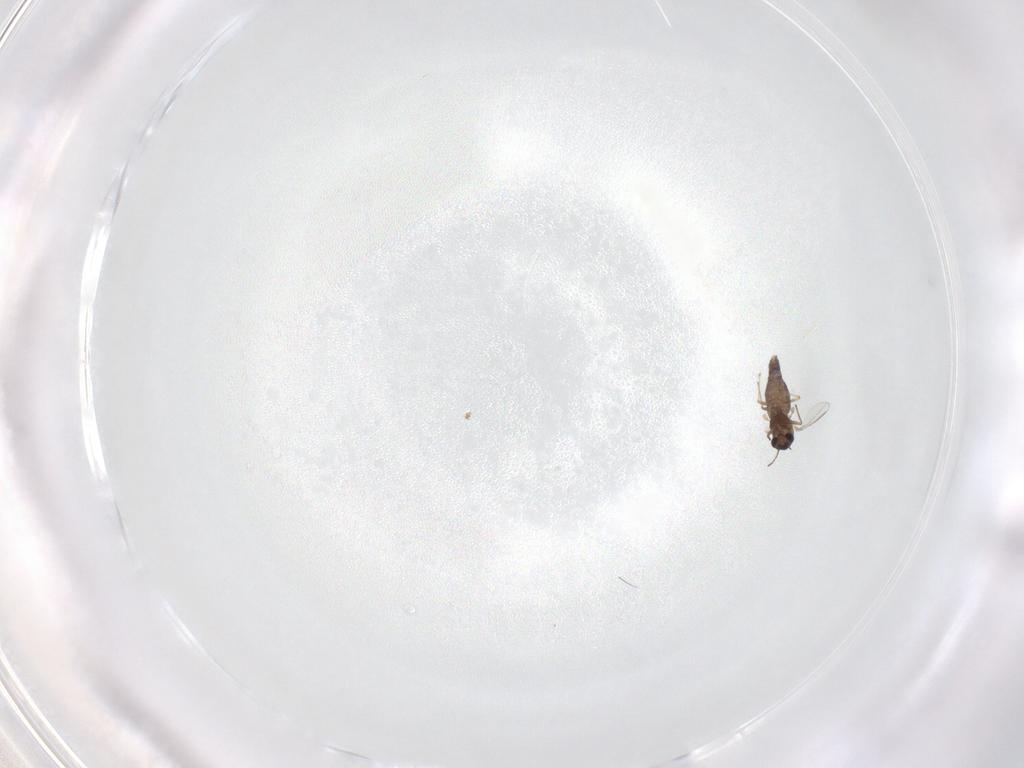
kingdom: Animalia
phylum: Arthropoda
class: Insecta
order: Diptera
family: Chironomidae
